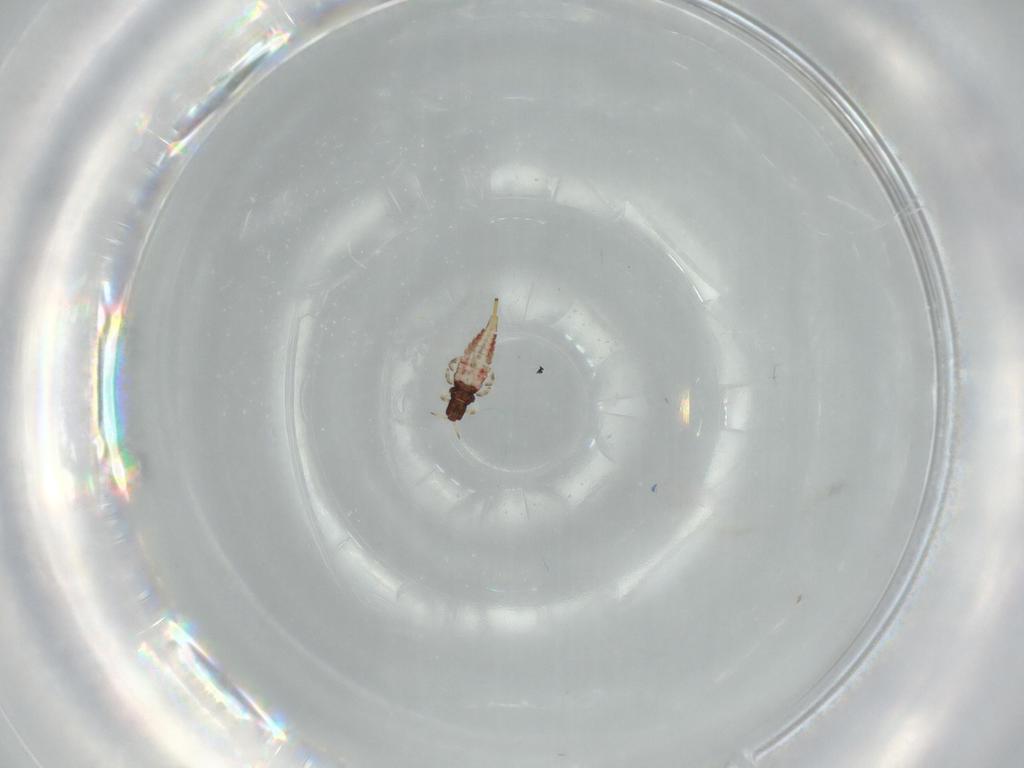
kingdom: Animalia
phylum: Arthropoda
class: Insecta
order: Thysanoptera
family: Phlaeothripidae
